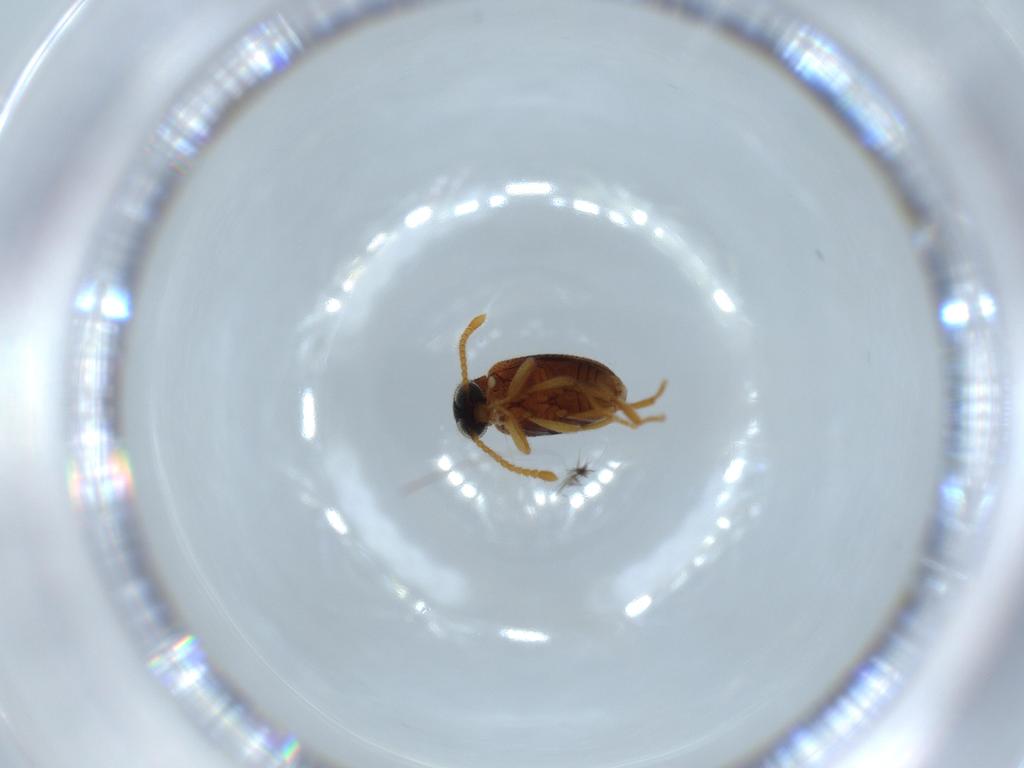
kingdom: Animalia
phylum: Arthropoda
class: Insecta
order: Coleoptera
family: Aderidae
